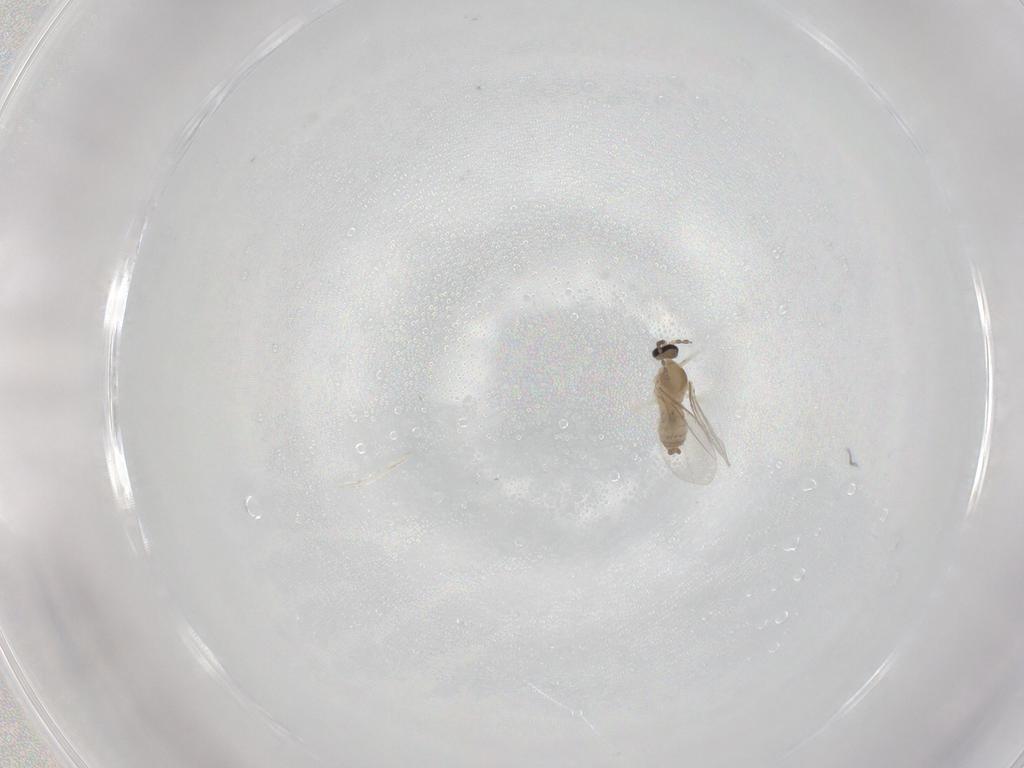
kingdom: Animalia
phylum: Arthropoda
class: Insecta
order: Diptera
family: Cecidomyiidae
